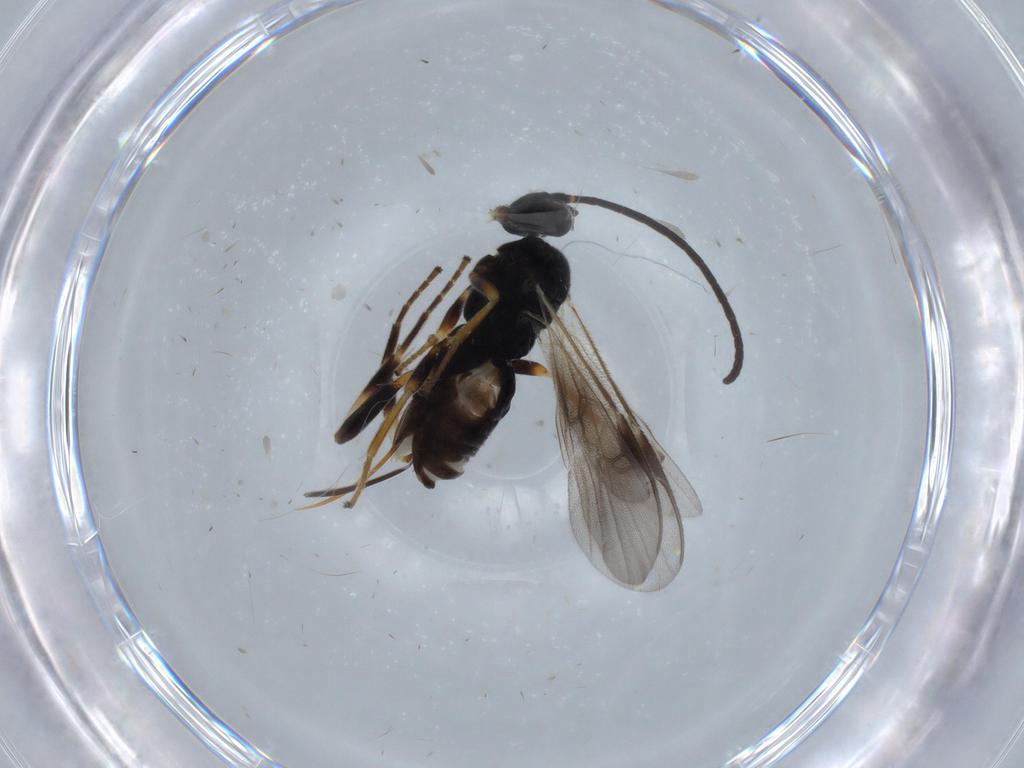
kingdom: Animalia
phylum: Arthropoda
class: Insecta
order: Hymenoptera
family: Braconidae
